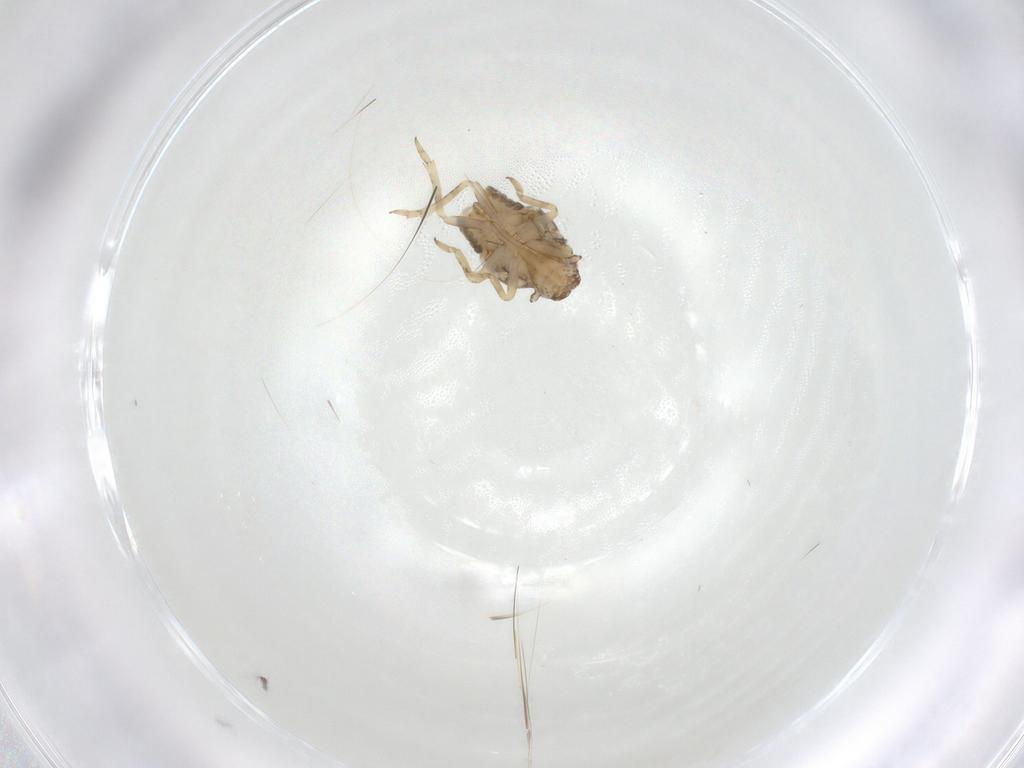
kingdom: Animalia
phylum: Arthropoda
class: Insecta
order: Hemiptera
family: Flatidae
